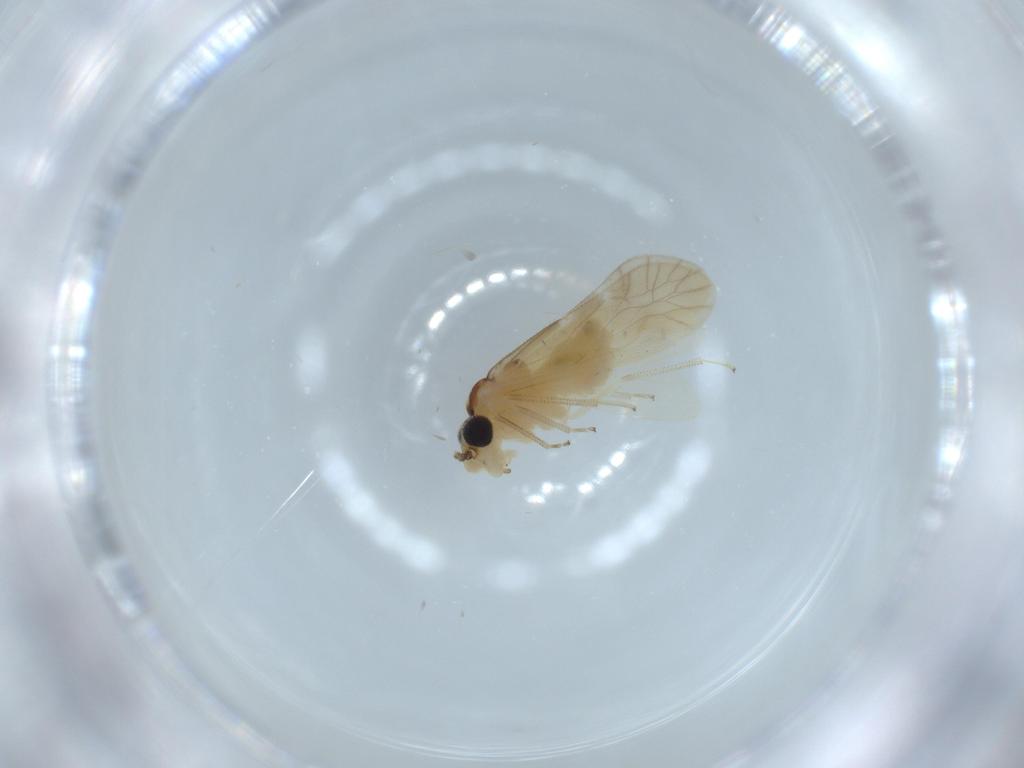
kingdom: Animalia
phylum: Arthropoda
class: Insecta
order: Psocodea
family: Caeciliusidae
